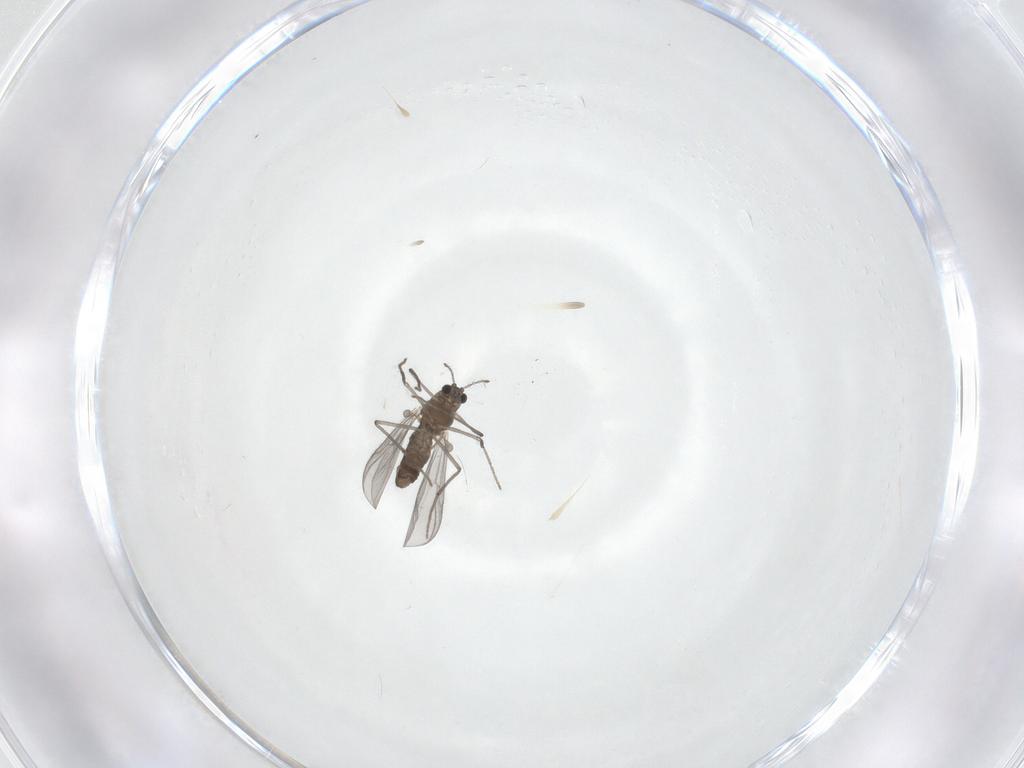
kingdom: Animalia
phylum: Arthropoda
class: Insecta
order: Diptera
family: Chironomidae
